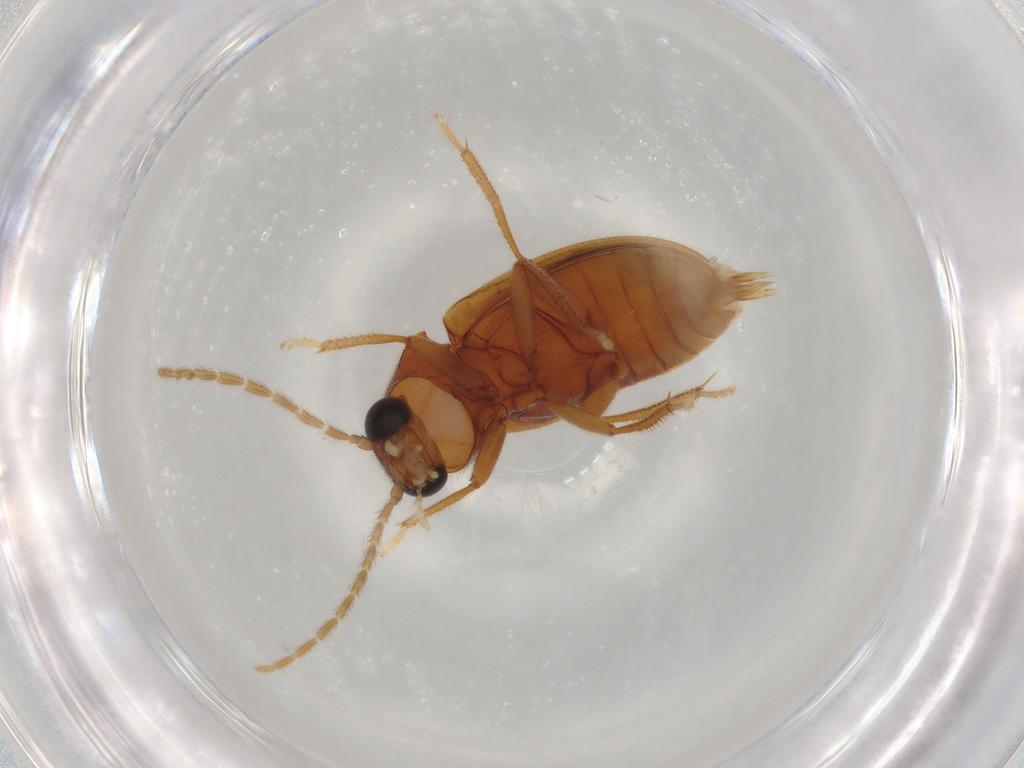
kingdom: Animalia
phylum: Arthropoda
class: Insecta
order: Coleoptera
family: Ptilodactylidae
